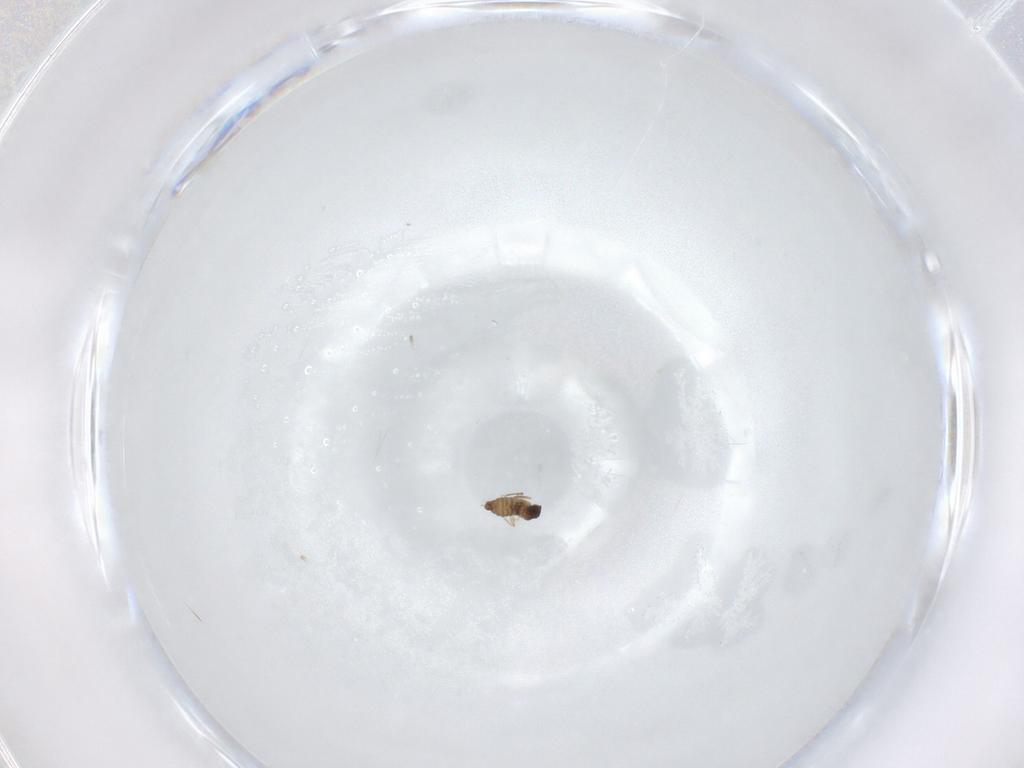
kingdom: Animalia
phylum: Arthropoda
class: Insecta
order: Diptera
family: Cecidomyiidae
